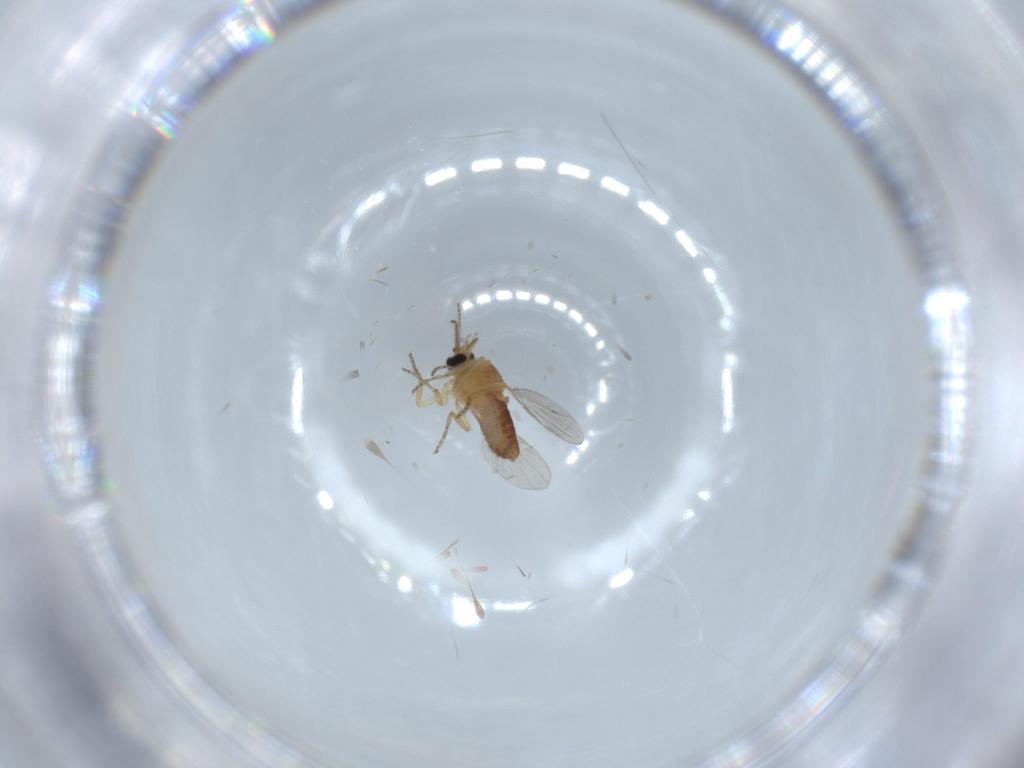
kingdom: Animalia
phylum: Arthropoda
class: Insecta
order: Diptera
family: Ceratopogonidae
